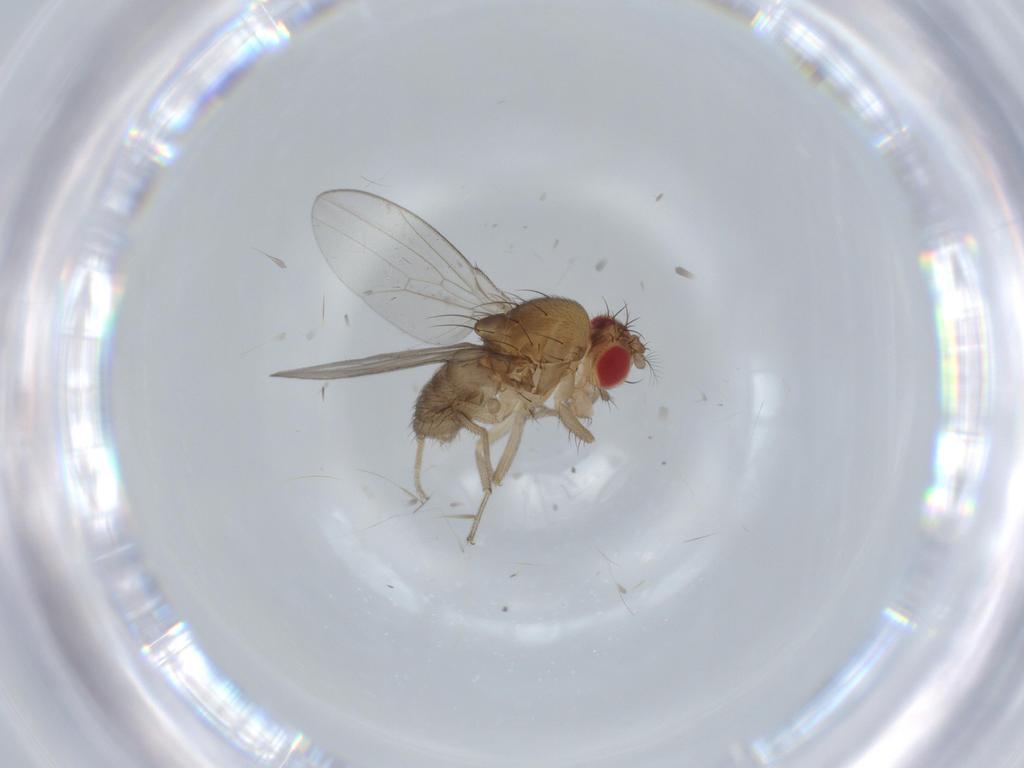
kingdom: Animalia
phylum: Arthropoda
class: Insecta
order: Diptera
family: Drosophilidae
